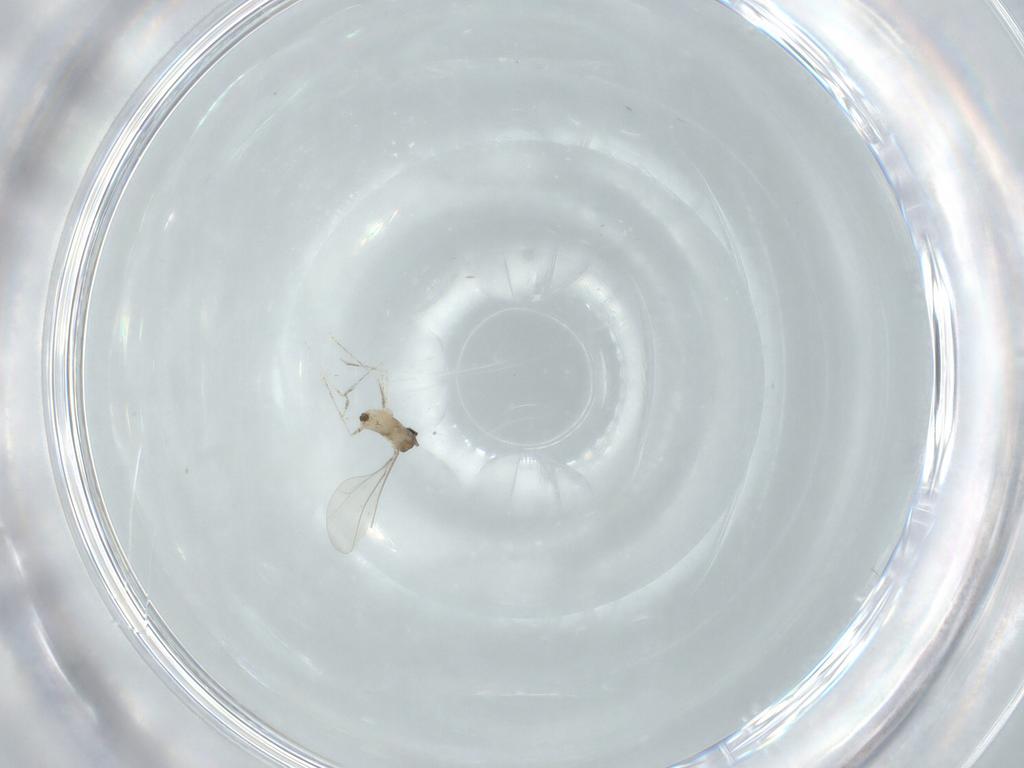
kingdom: Animalia
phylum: Arthropoda
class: Insecta
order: Diptera
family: Cecidomyiidae
